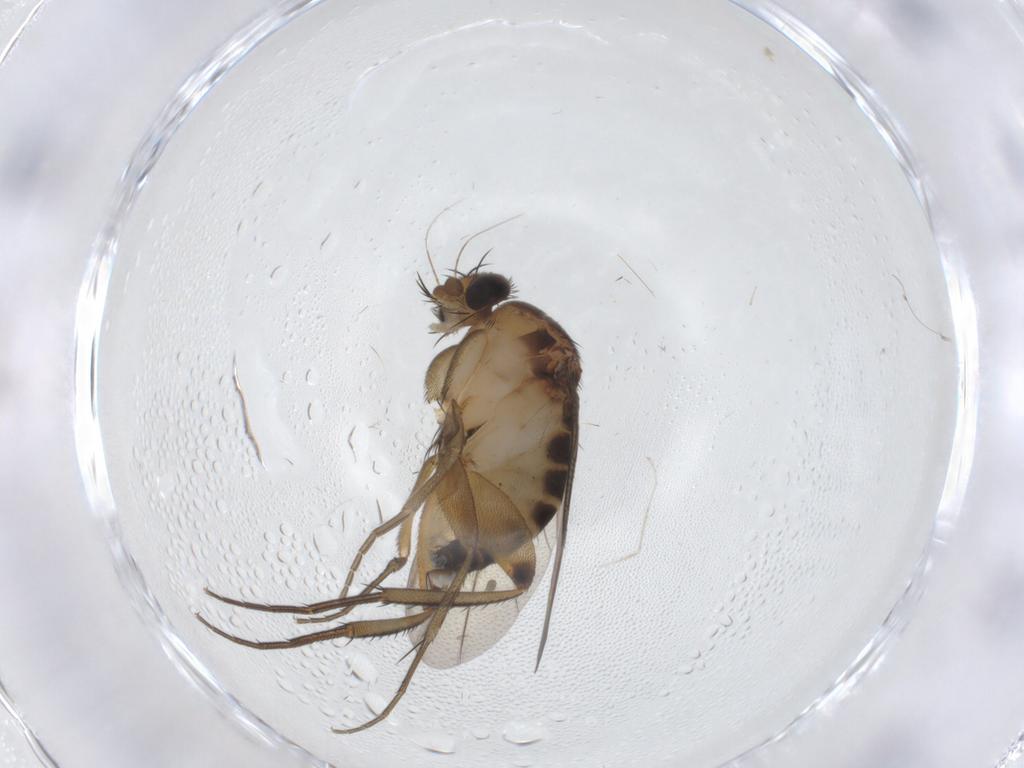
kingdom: Animalia
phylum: Arthropoda
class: Insecta
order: Diptera
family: Phoridae
